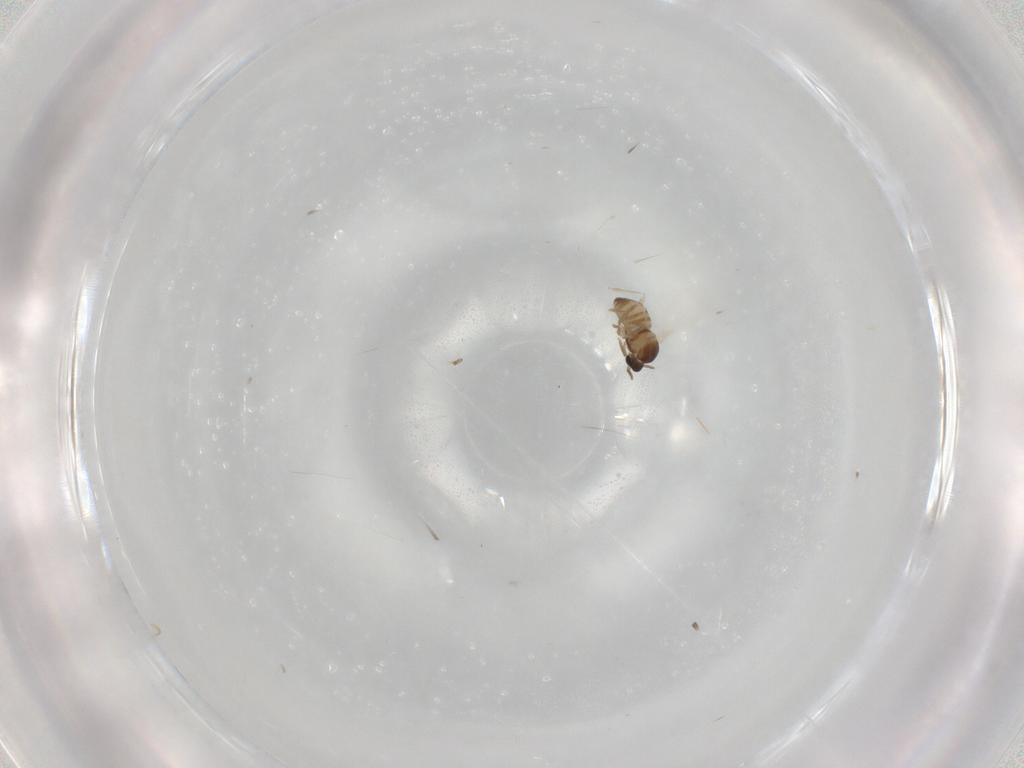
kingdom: Animalia
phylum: Arthropoda
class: Insecta
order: Diptera
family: Cecidomyiidae
